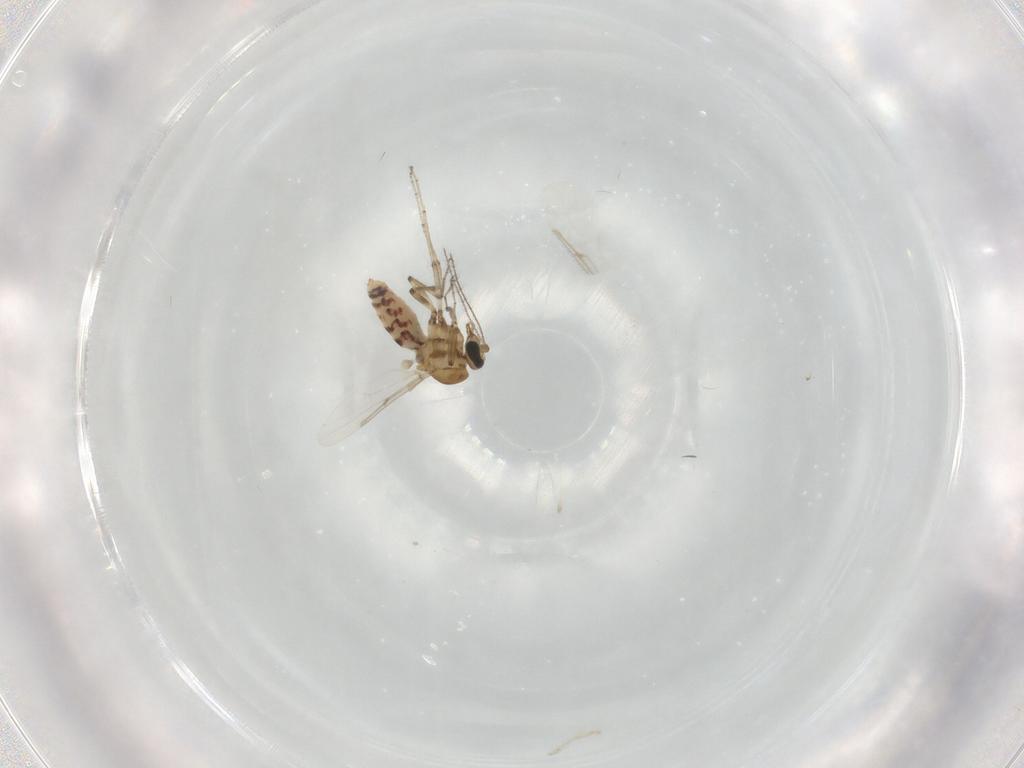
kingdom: Animalia
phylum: Arthropoda
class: Insecta
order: Diptera
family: Ceratopogonidae
